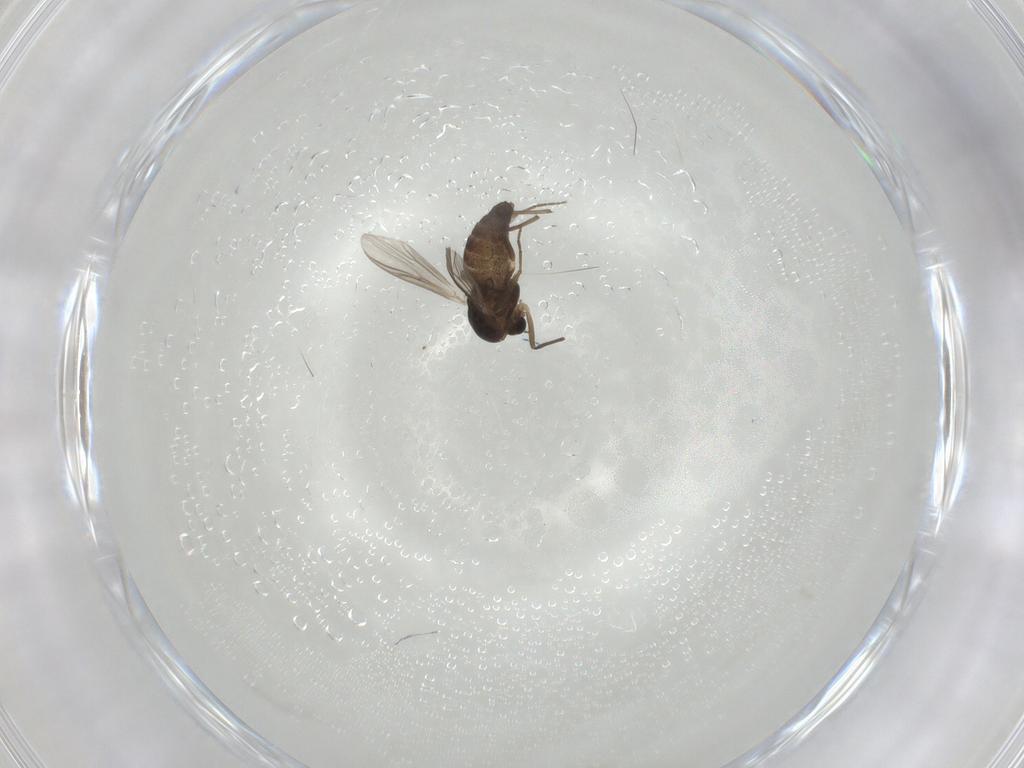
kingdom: Animalia
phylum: Arthropoda
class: Insecta
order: Diptera
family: Chironomidae
